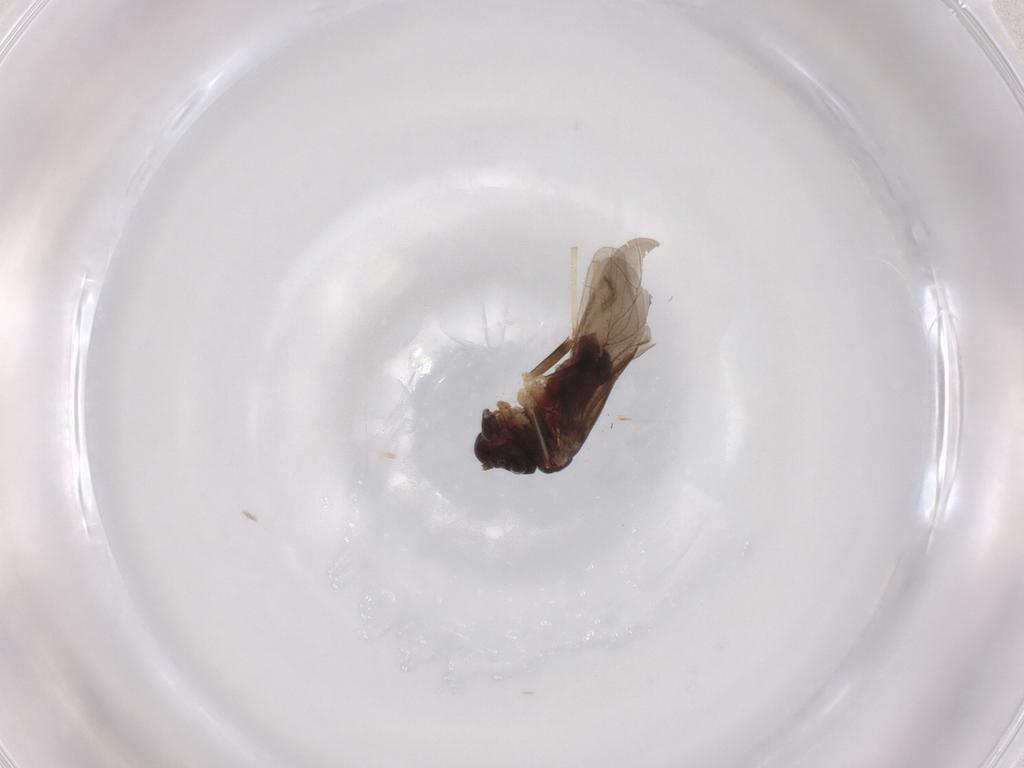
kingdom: Animalia
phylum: Arthropoda
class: Insecta
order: Psocodea
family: Caeciliusidae
